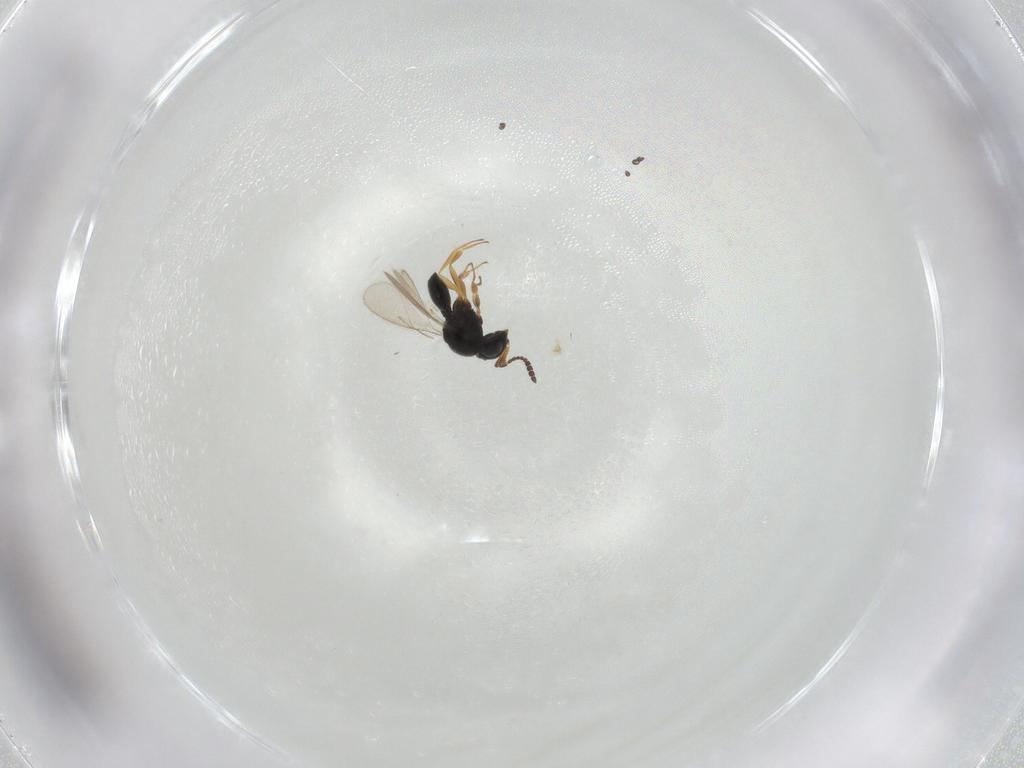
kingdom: Animalia
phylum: Arthropoda
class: Insecta
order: Hymenoptera
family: Scelionidae
